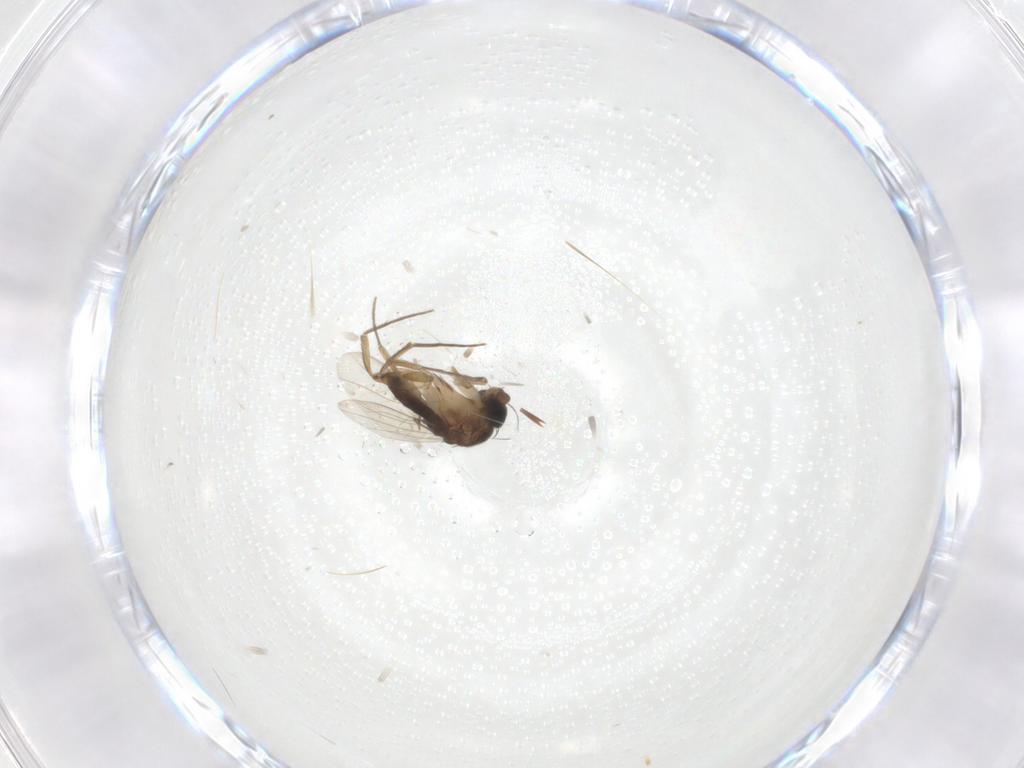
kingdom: Animalia
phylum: Arthropoda
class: Insecta
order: Diptera
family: Phoridae
